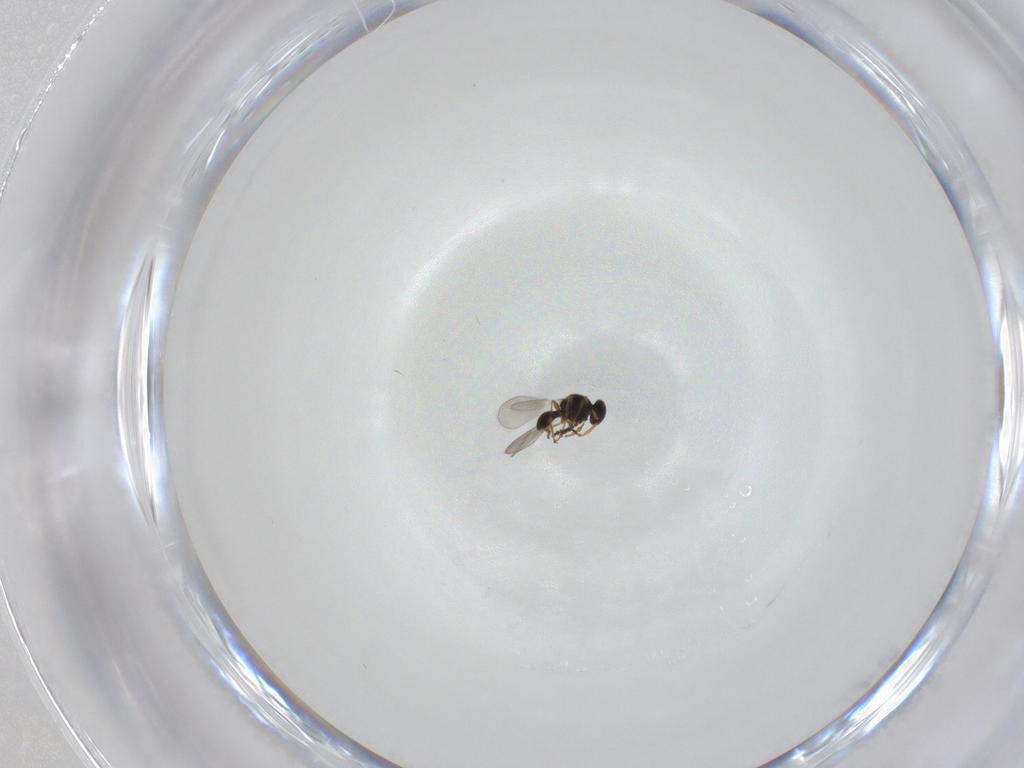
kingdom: Animalia
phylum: Arthropoda
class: Insecta
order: Hymenoptera
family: Platygastridae
